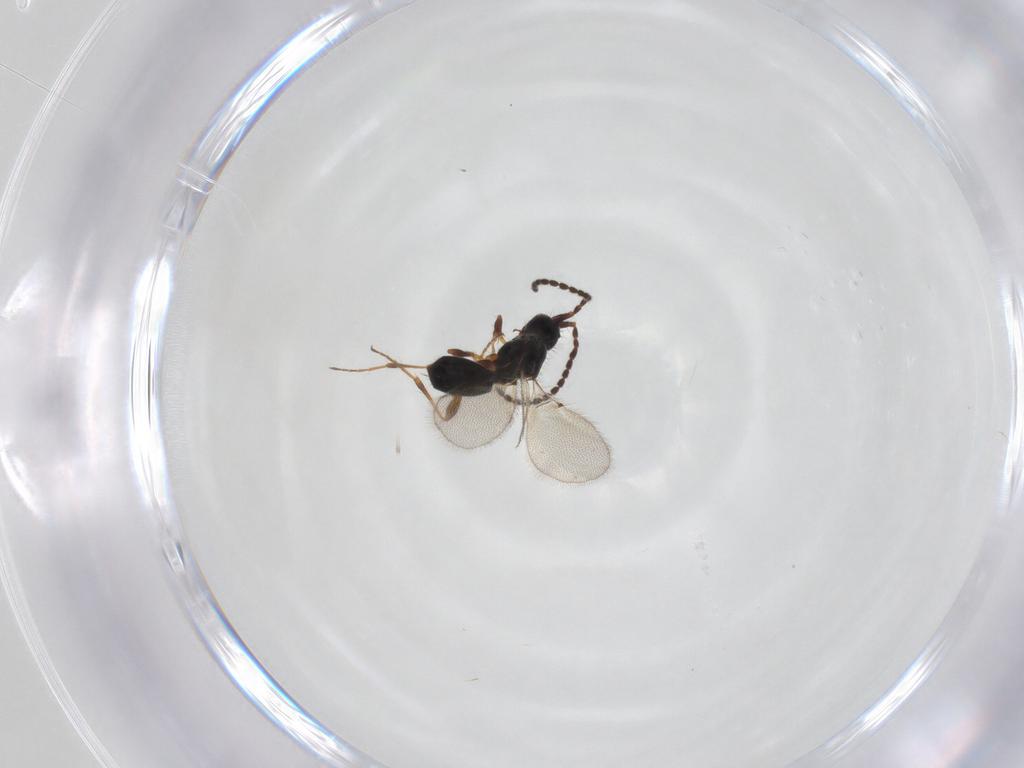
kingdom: Animalia
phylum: Arthropoda
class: Insecta
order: Hymenoptera
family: Diapriidae
